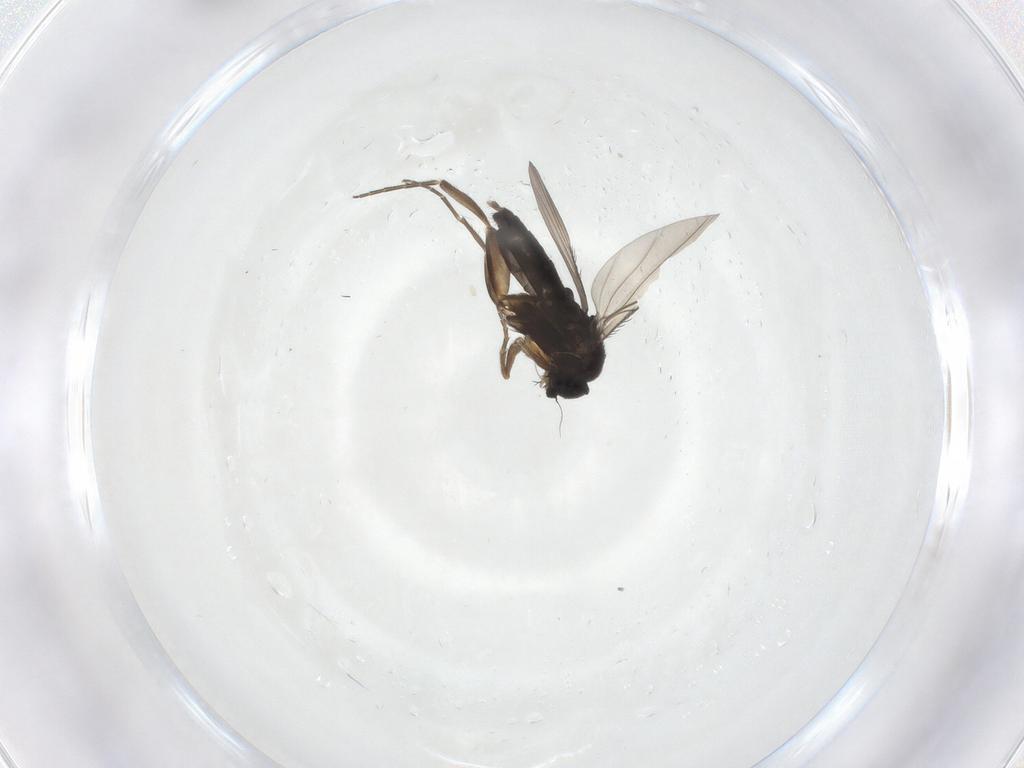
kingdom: Animalia
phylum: Arthropoda
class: Insecta
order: Diptera
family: Phoridae
